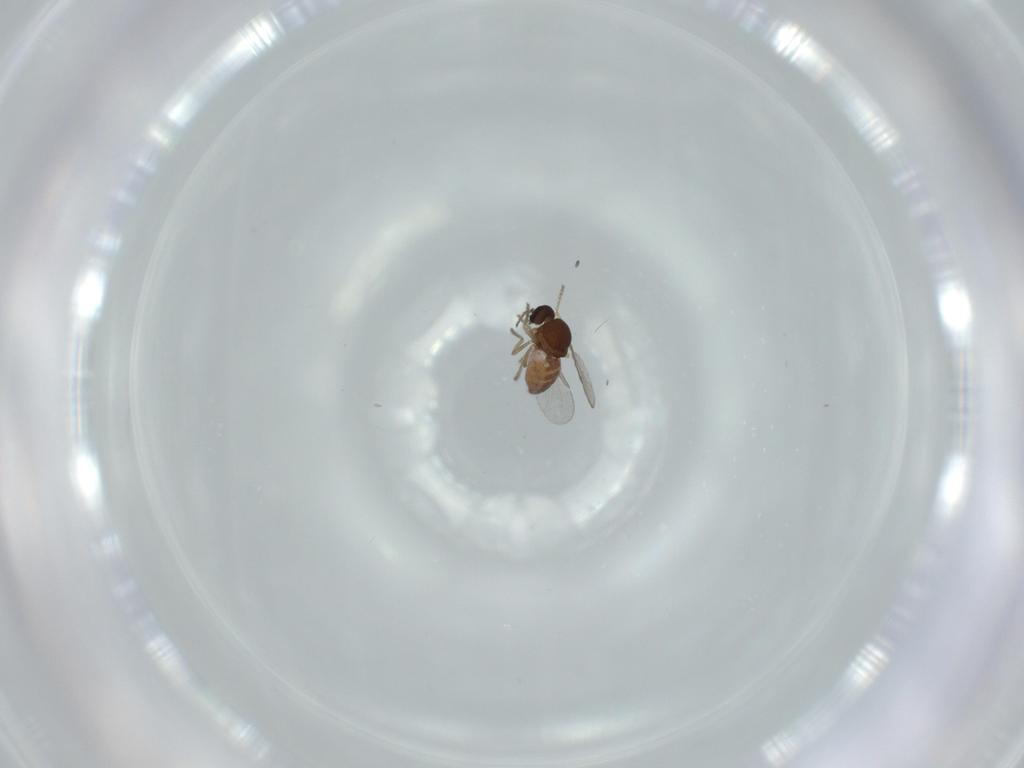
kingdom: Animalia
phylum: Arthropoda
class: Insecta
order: Diptera
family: Ceratopogonidae
